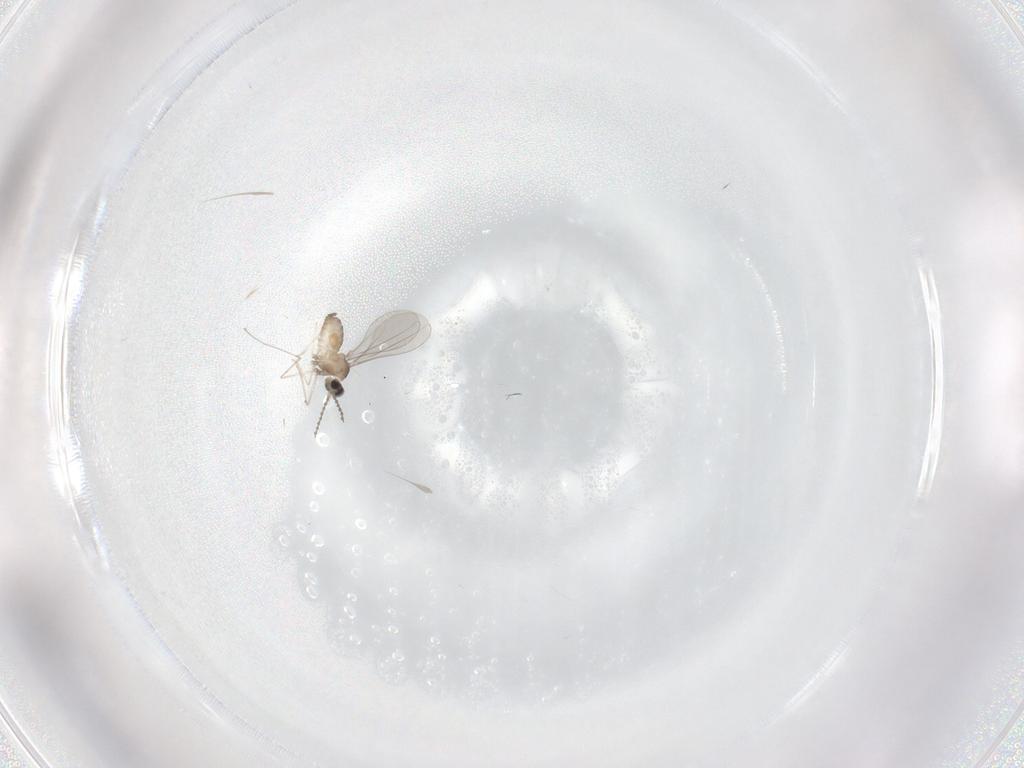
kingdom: Animalia
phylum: Arthropoda
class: Insecta
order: Diptera
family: Cecidomyiidae
